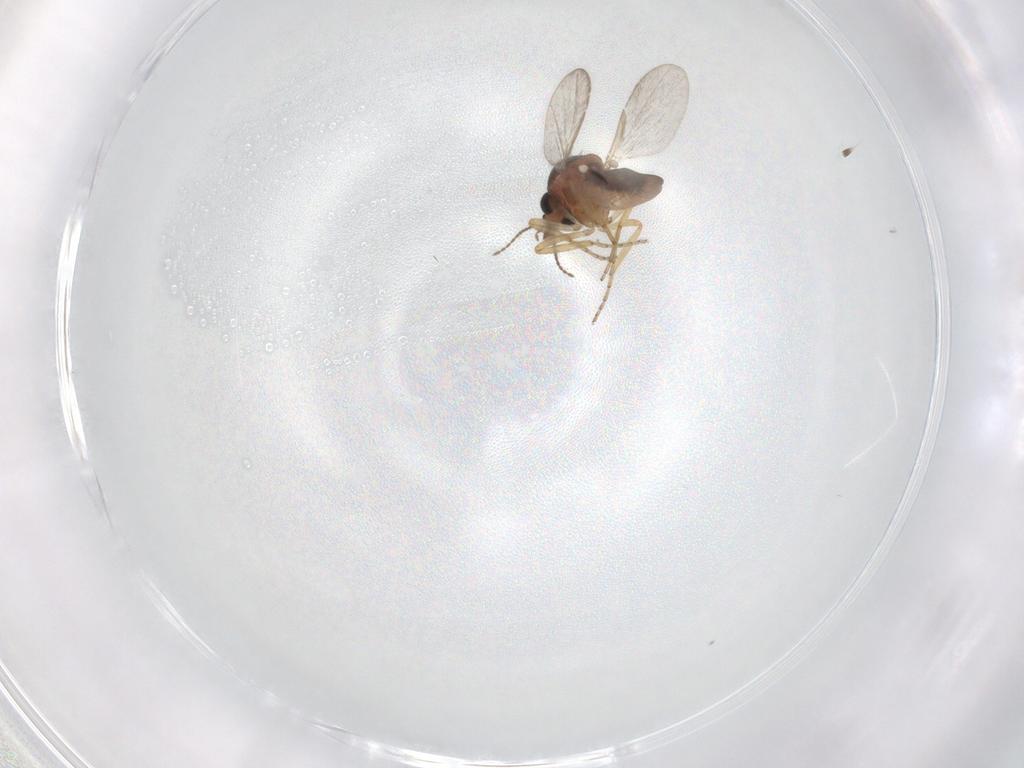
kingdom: Animalia
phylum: Arthropoda
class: Insecta
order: Diptera
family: Ceratopogonidae
